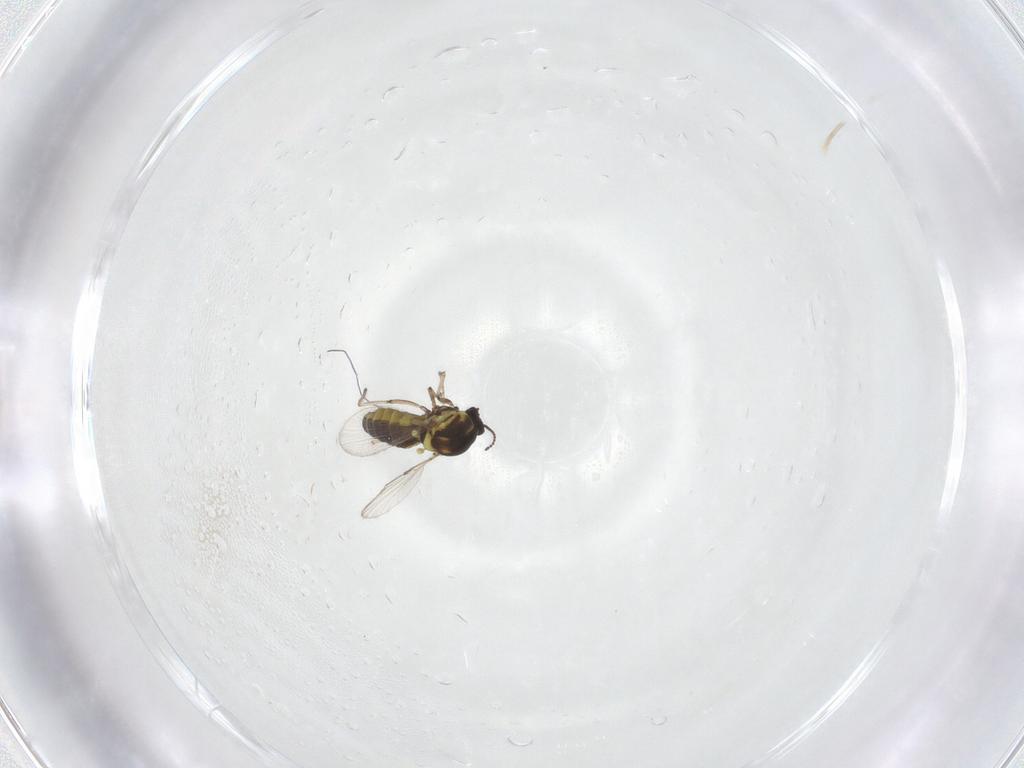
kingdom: Animalia
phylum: Arthropoda
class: Insecta
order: Diptera
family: Ceratopogonidae
